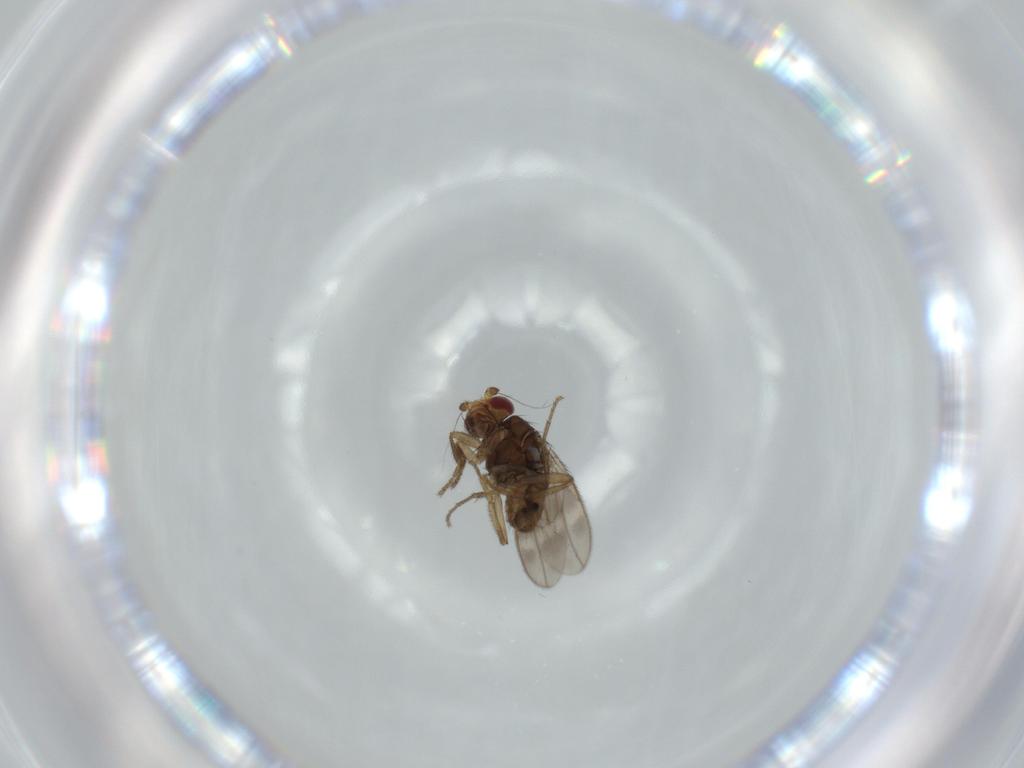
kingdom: Animalia
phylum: Arthropoda
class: Insecta
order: Diptera
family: Sphaeroceridae
